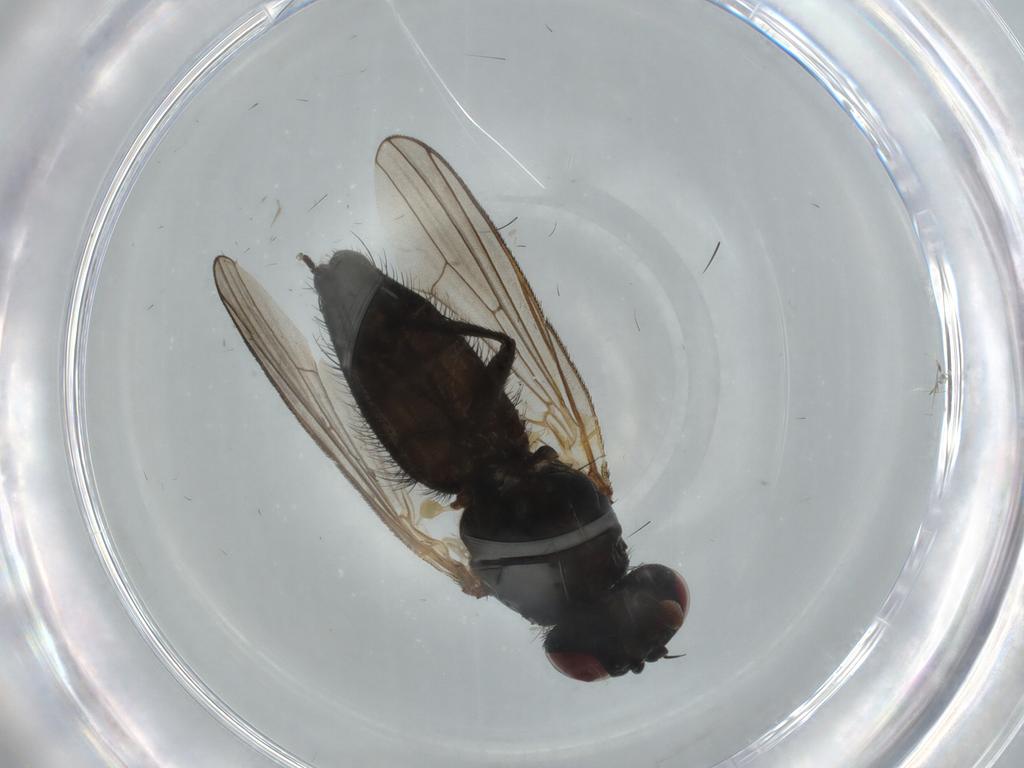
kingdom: Animalia
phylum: Arthropoda
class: Insecta
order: Diptera
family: Fannia
